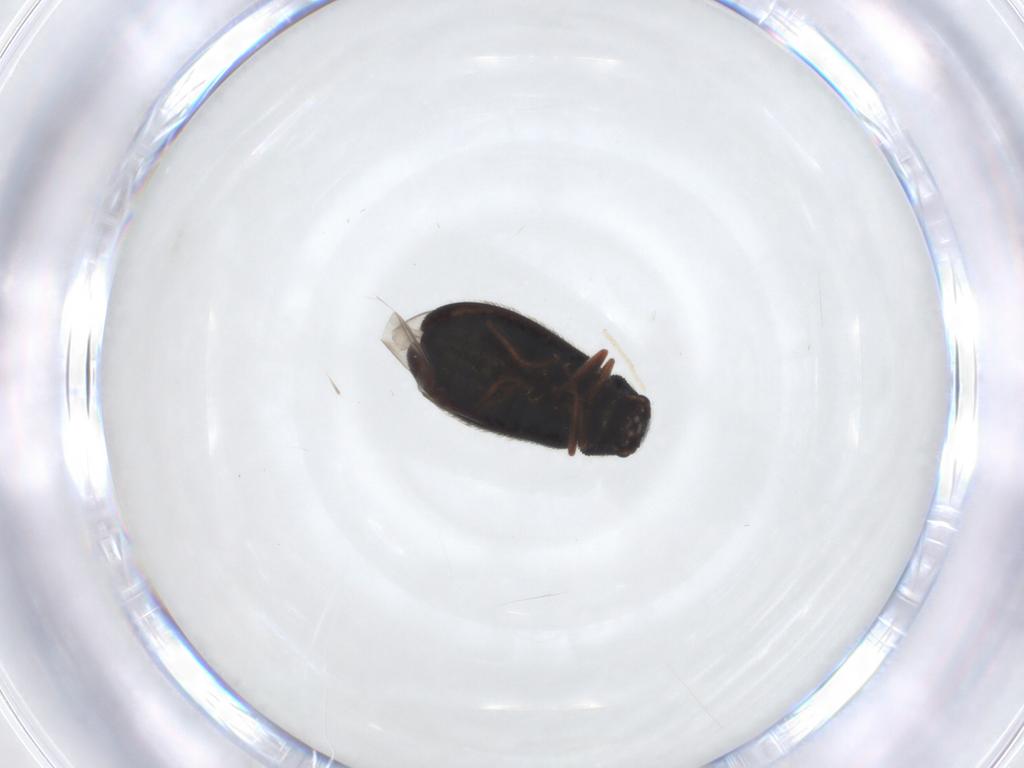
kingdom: Animalia
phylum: Arthropoda
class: Insecta
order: Coleoptera
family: Melyridae
